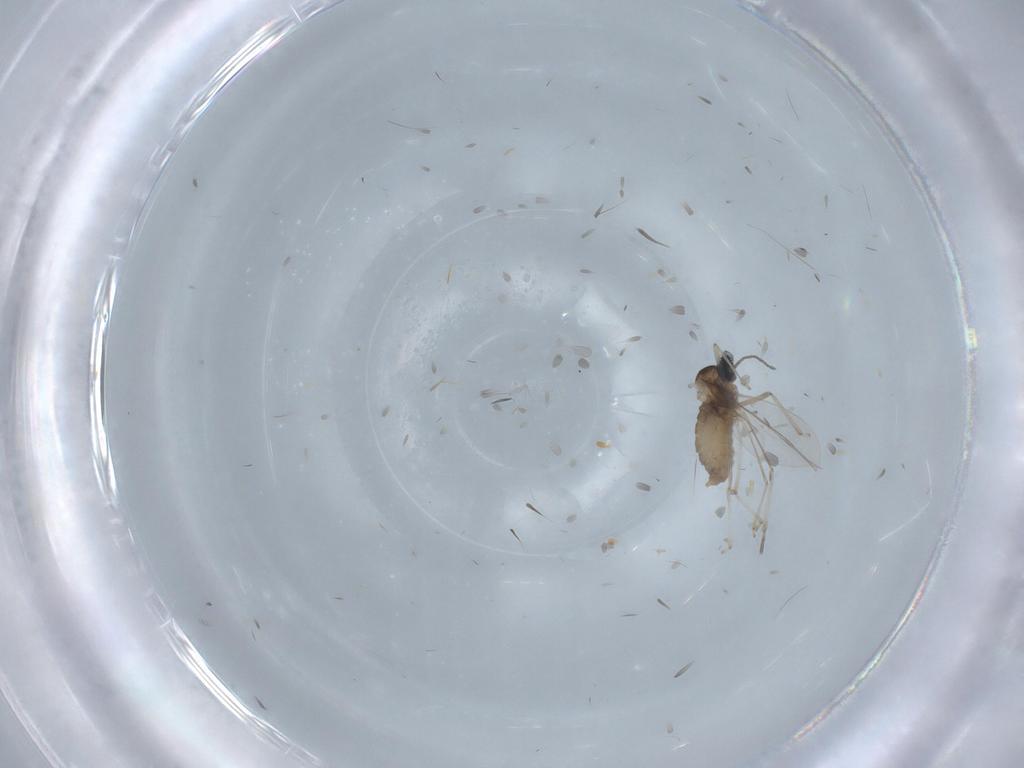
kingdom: Animalia
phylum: Arthropoda
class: Insecta
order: Diptera
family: Cecidomyiidae
